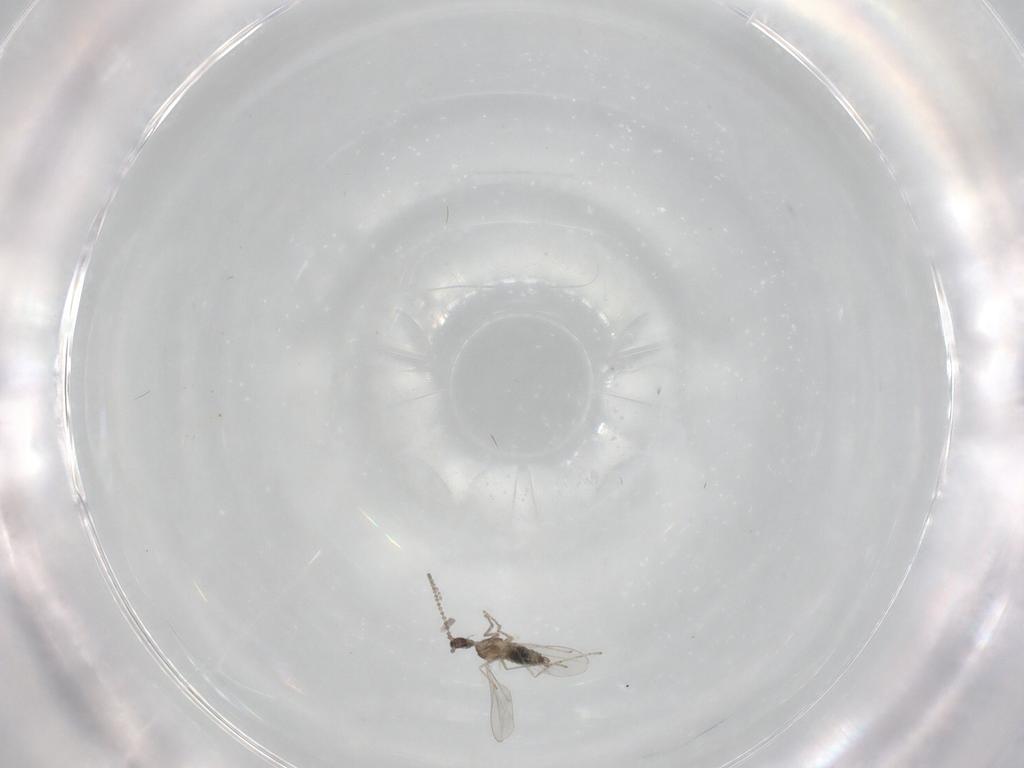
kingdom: Animalia
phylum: Arthropoda
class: Insecta
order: Diptera
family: Cecidomyiidae
